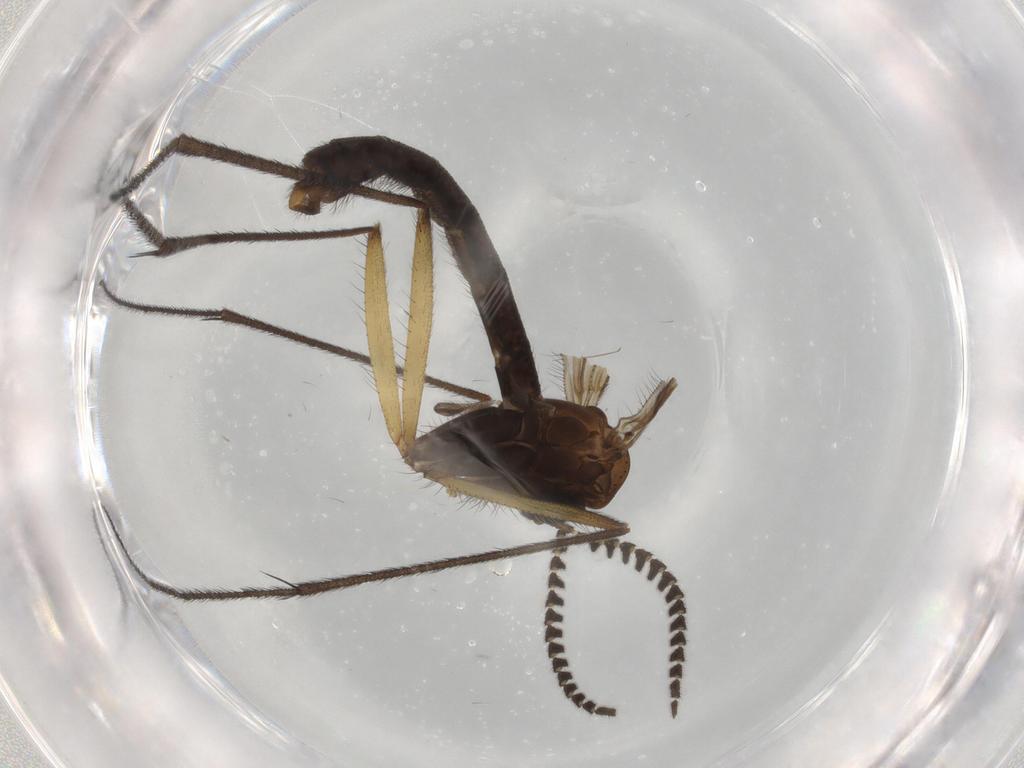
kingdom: Animalia
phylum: Arthropoda
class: Insecta
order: Diptera
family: Ditomyiidae
